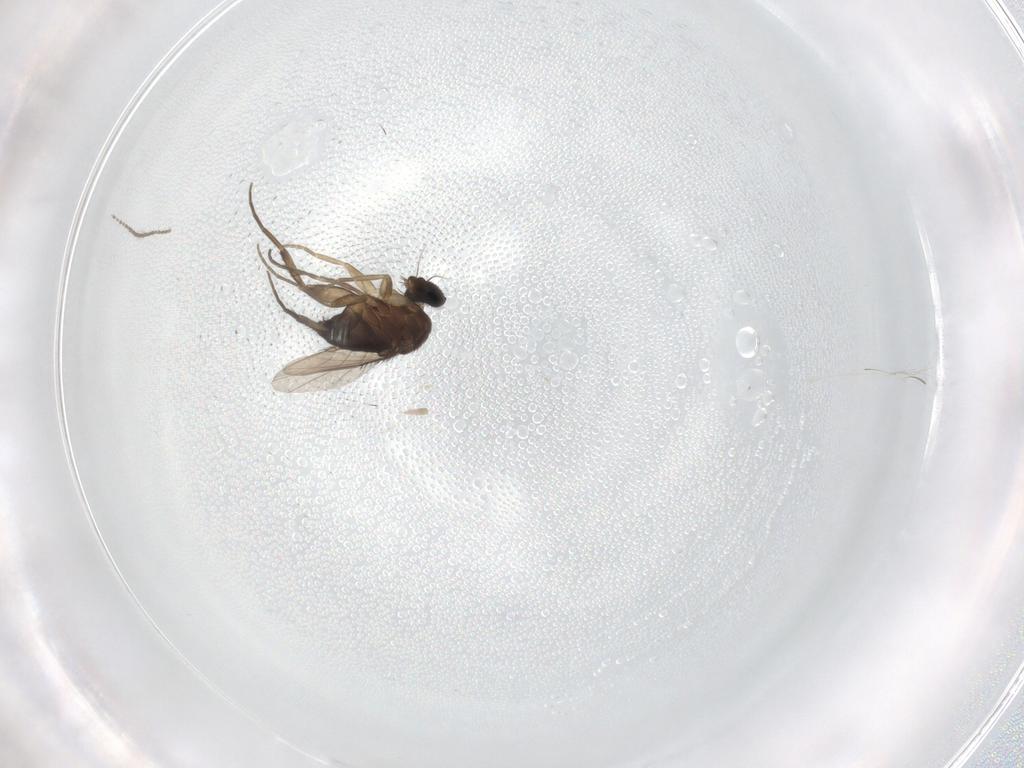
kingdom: Animalia
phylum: Arthropoda
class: Insecta
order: Diptera
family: Phoridae
